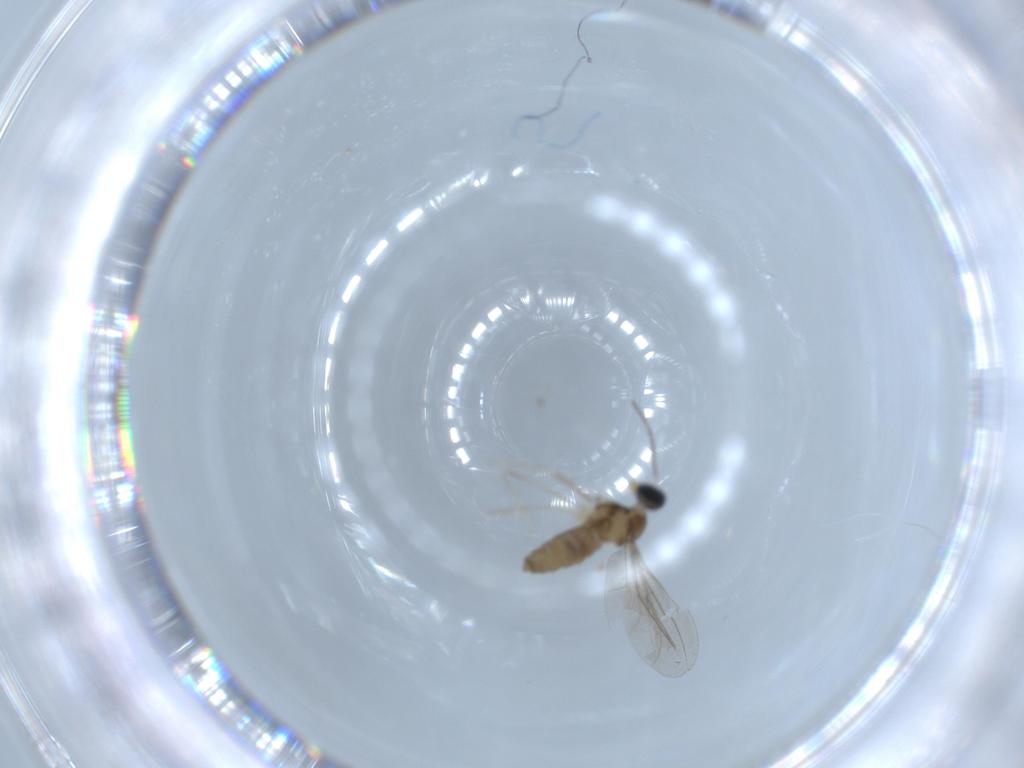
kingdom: Animalia
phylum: Arthropoda
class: Insecta
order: Diptera
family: Cecidomyiidae
